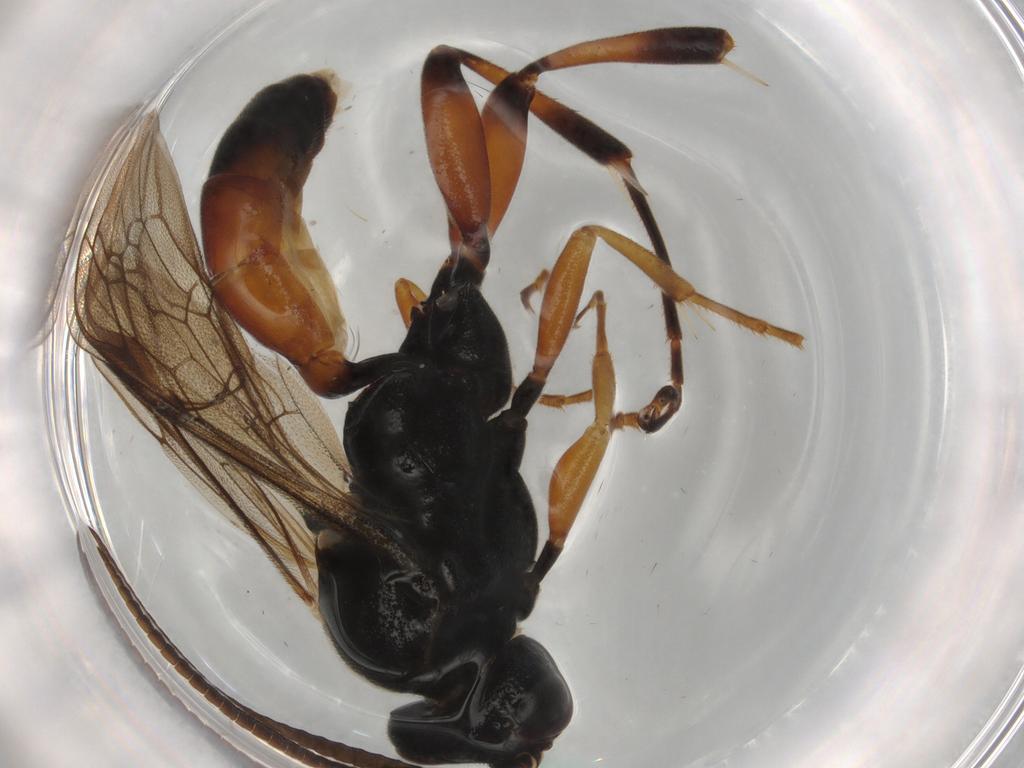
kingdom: Animalia
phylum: Arthropoda
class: Insecta
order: Hymenoptera
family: Ichneumonidae
